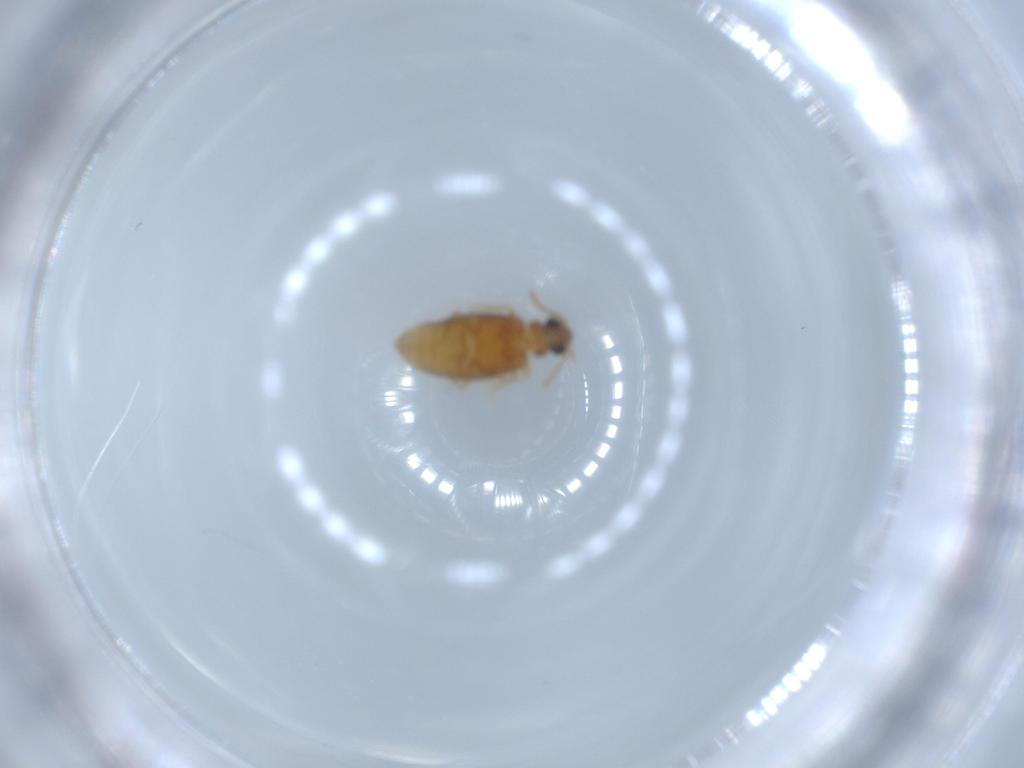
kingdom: Animalia
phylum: Arthropoda
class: Insecta
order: Coleoptera
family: Aderidae
